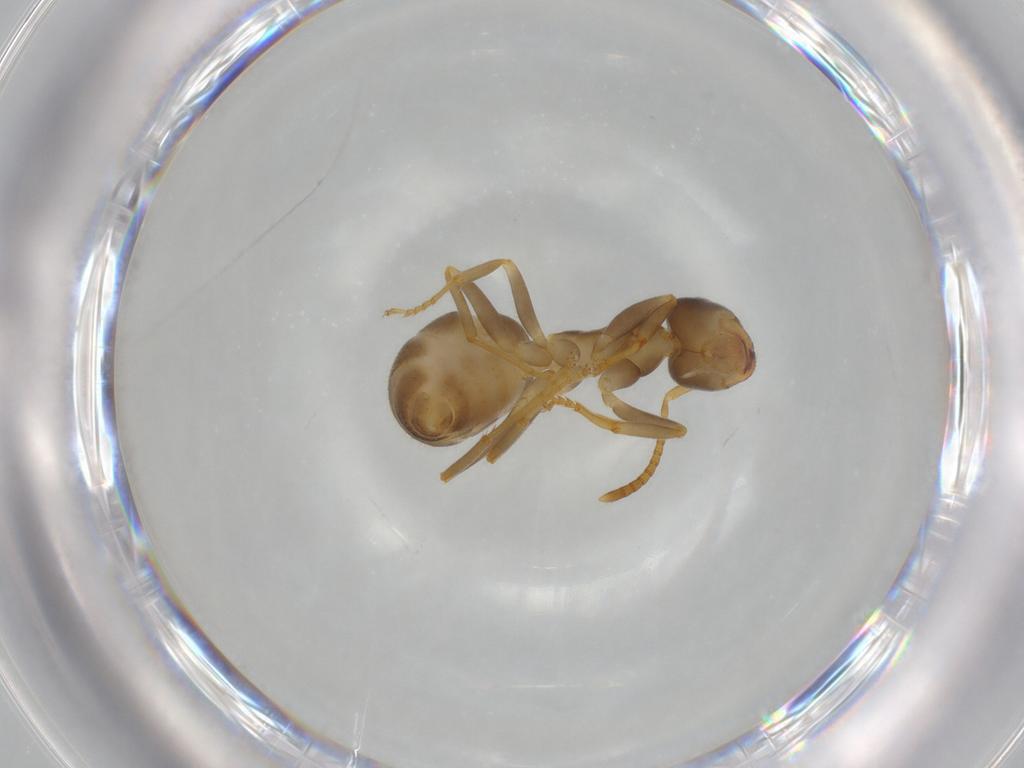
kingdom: Animalia
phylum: Arthropoda
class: Insecta
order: Hymenoptera
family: Formicidae
